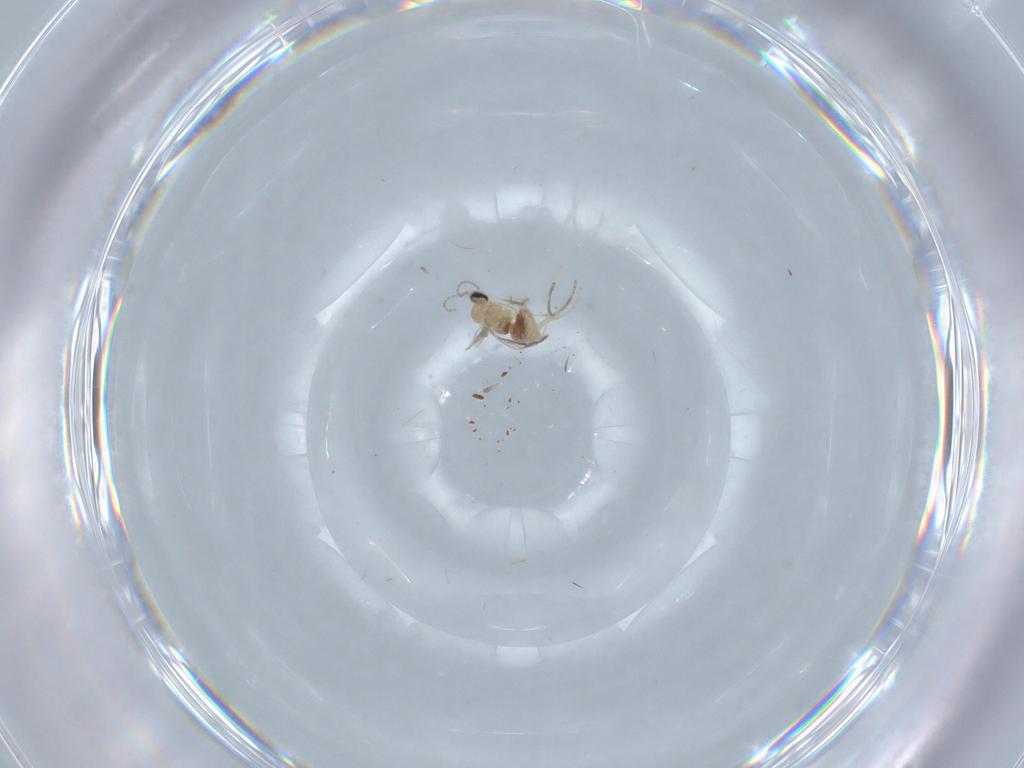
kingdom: Animalia
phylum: Arthropoda
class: Insecta
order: Diptera
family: Cecidomyiidae
